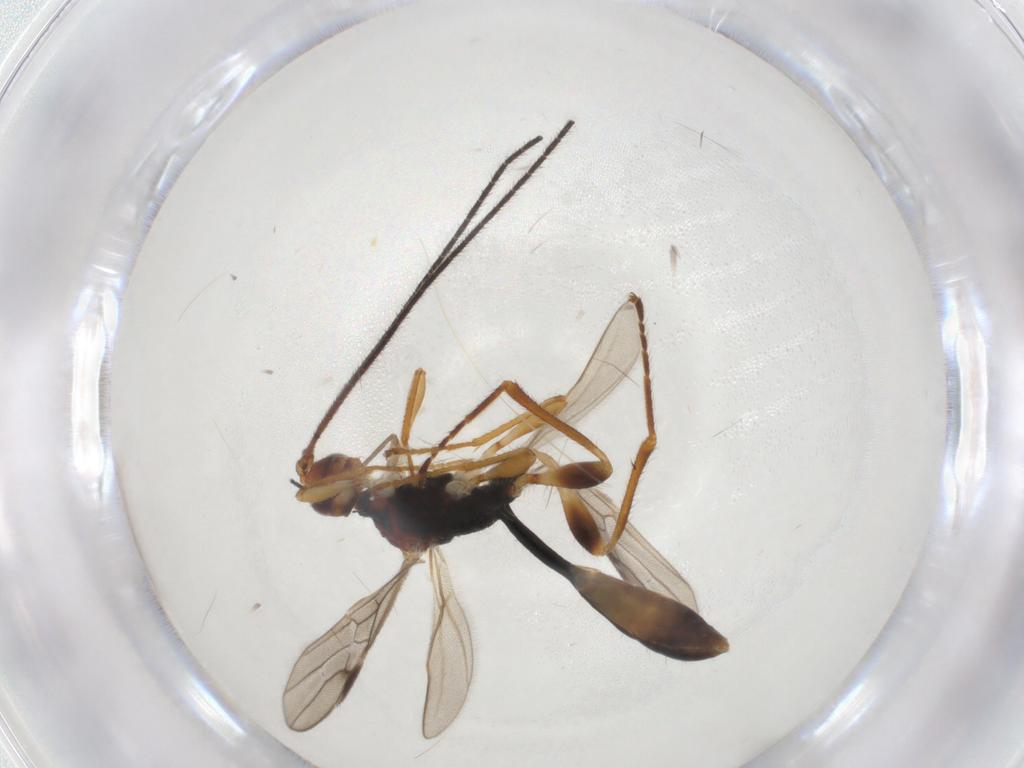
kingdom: Animalia
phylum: Arthropoda
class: Insecta
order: Hymenoptera
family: Braconidae
